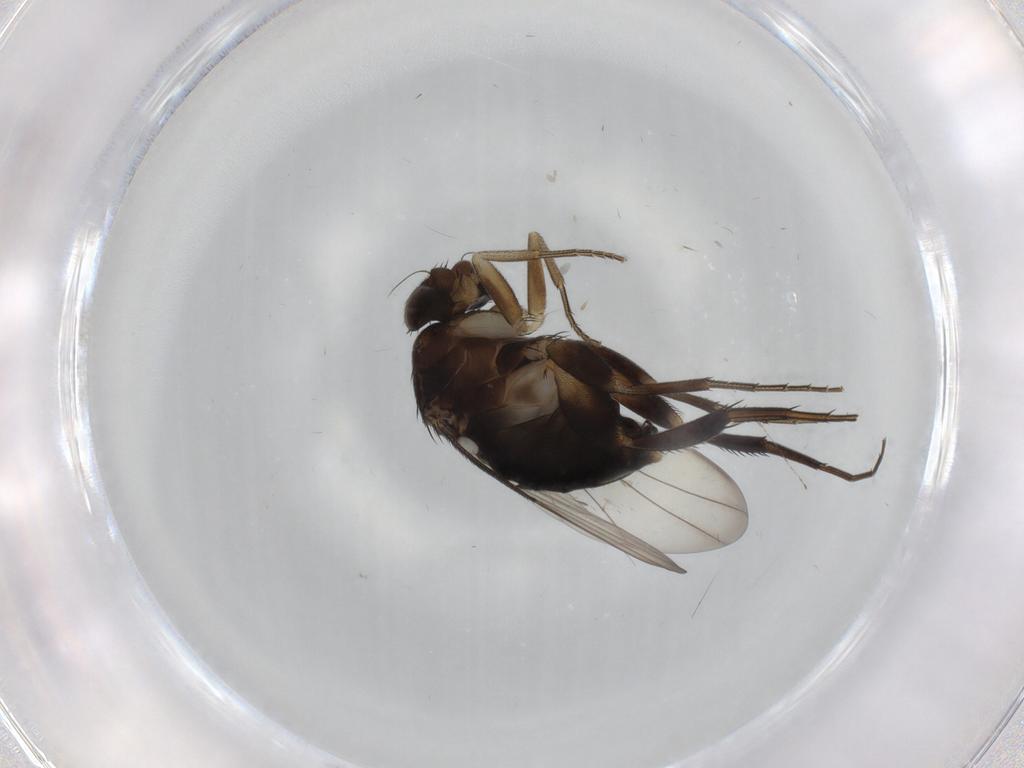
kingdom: Animalia
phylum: Arthropoda
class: Insecta
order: Diptera
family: Phoridae
